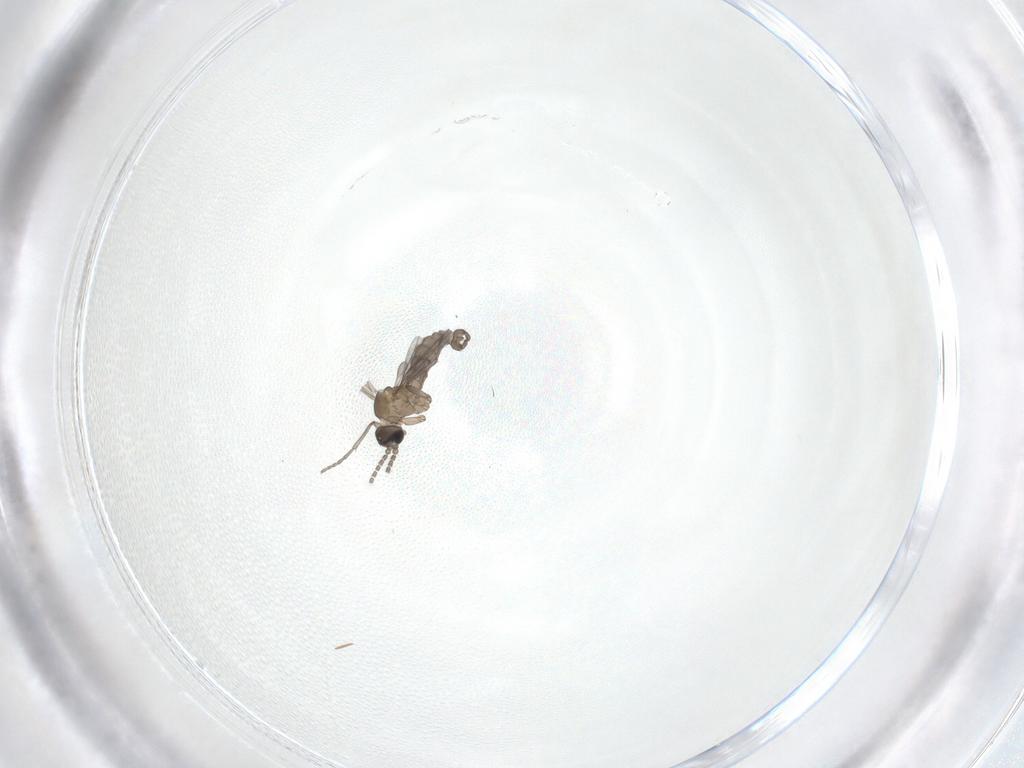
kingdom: Animalia
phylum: Arthropoda
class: Insecta
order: Diptera
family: Sciaridae
